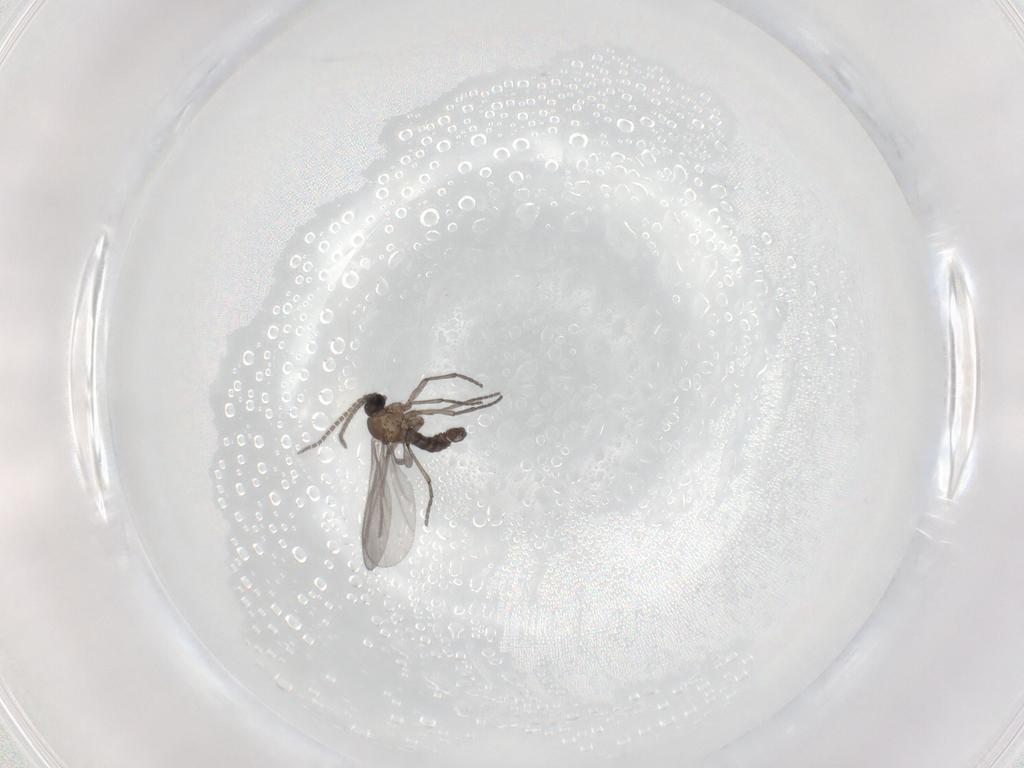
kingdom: Animalia
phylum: Arthropoda
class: Insecta
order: Diptera
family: Sciaridae
